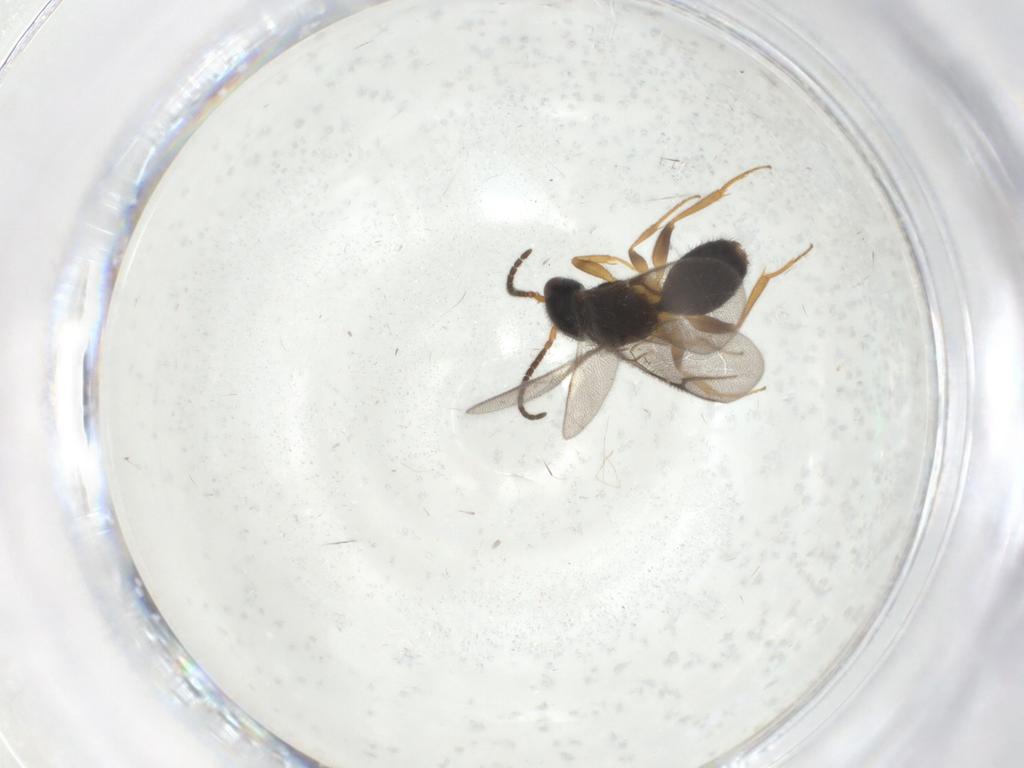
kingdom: Animalia
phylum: Arthropoda
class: Insecta
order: Hymenoptera
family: Bethylidae
